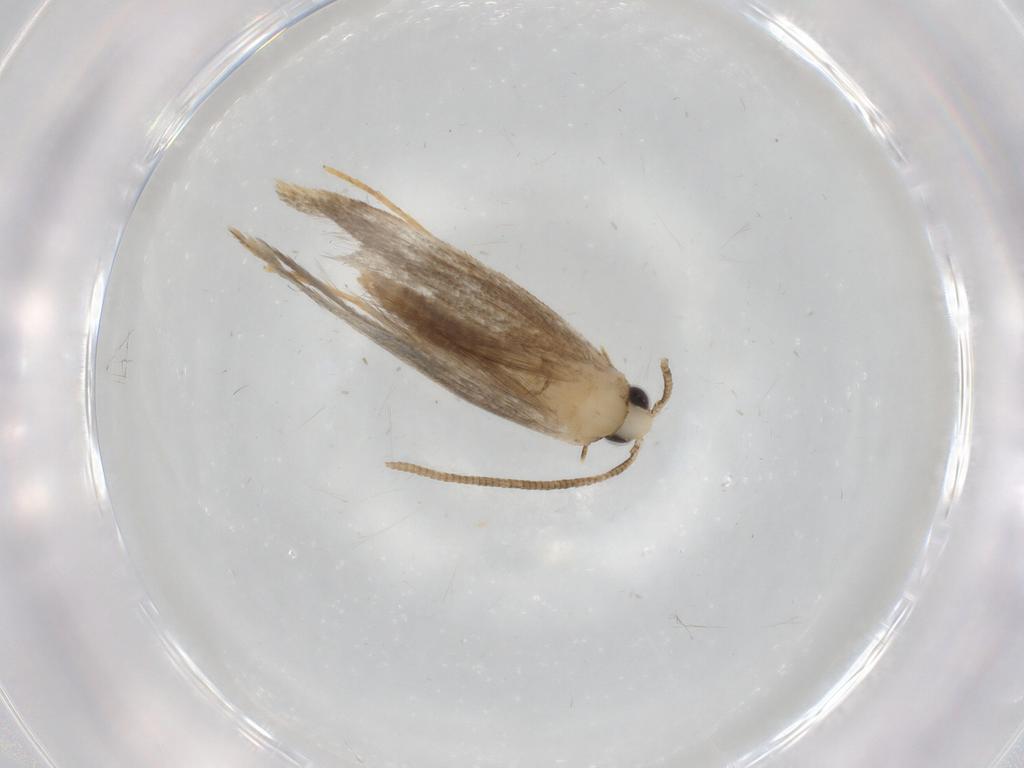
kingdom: Animalia
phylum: Arthropoda
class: Insecta
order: Lepidoptera
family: Tineidae
